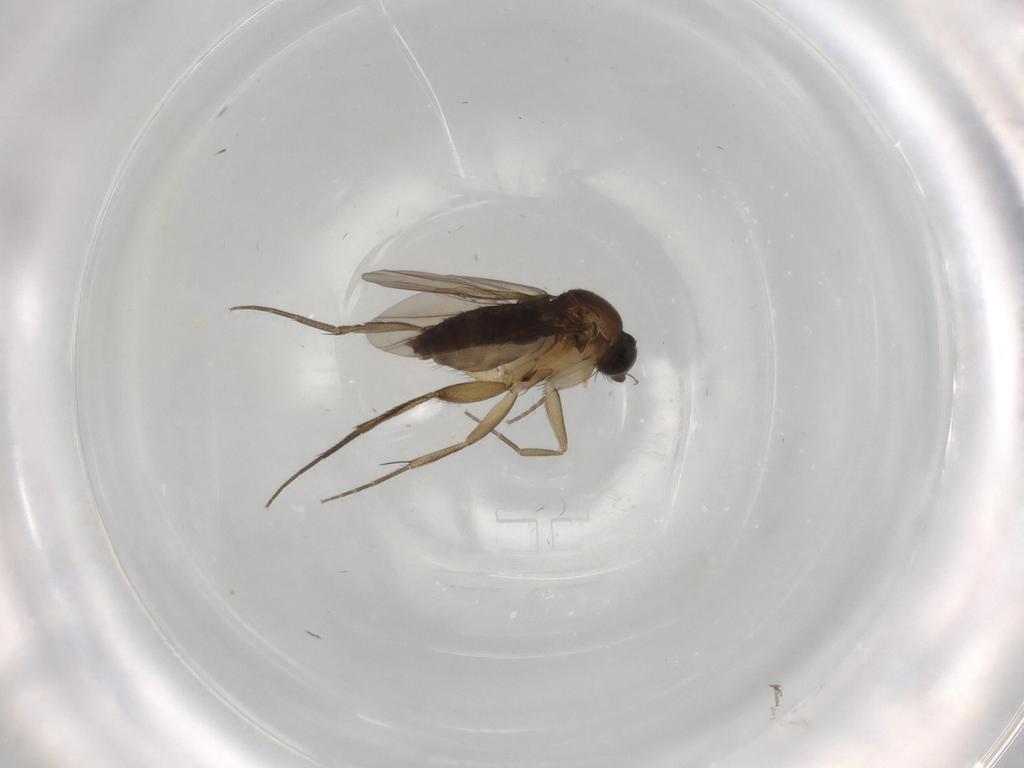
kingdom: Animalia
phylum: Arthropoda
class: Insecta
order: Diptera
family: Phoridae
